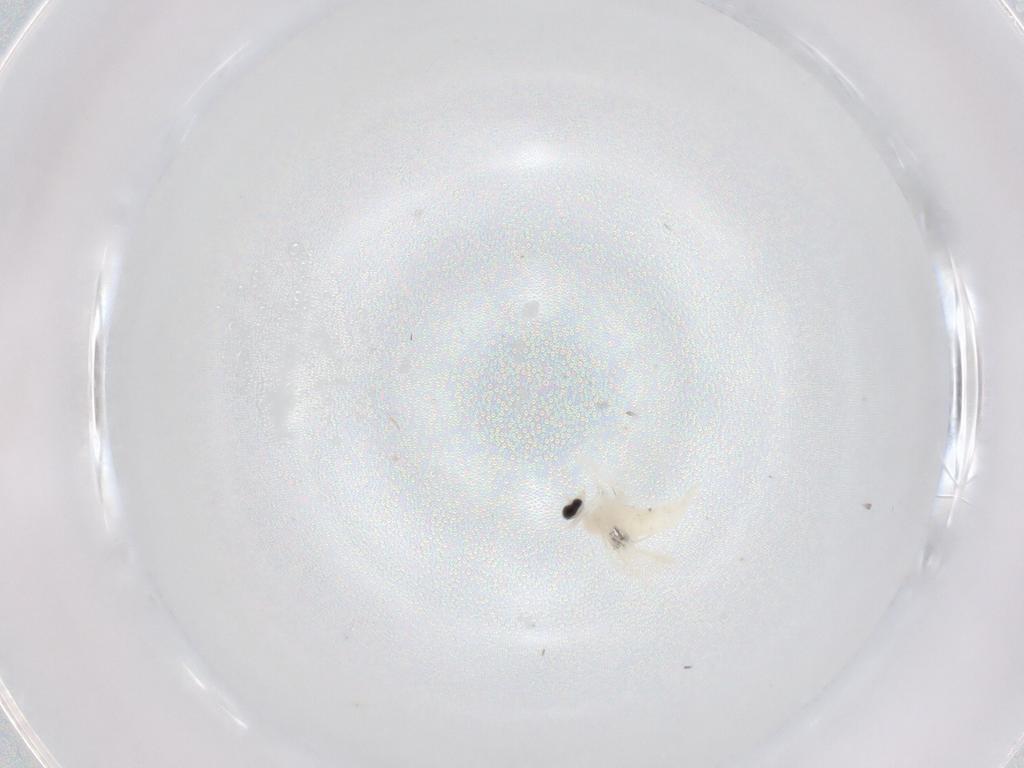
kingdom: Animalia
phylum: Arthropoda
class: Insecta
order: Diptera
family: Cecidomyiidae
